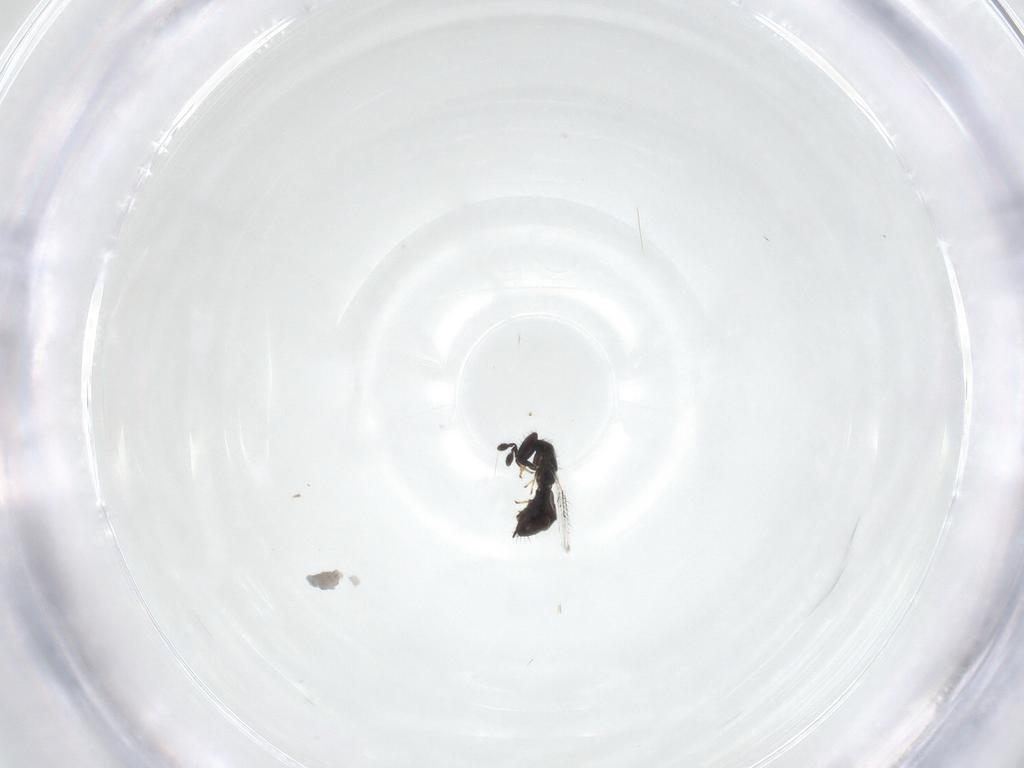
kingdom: Animalia
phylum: Arthropoda
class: Insecta
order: Hymenoptera
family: Pirenidae
